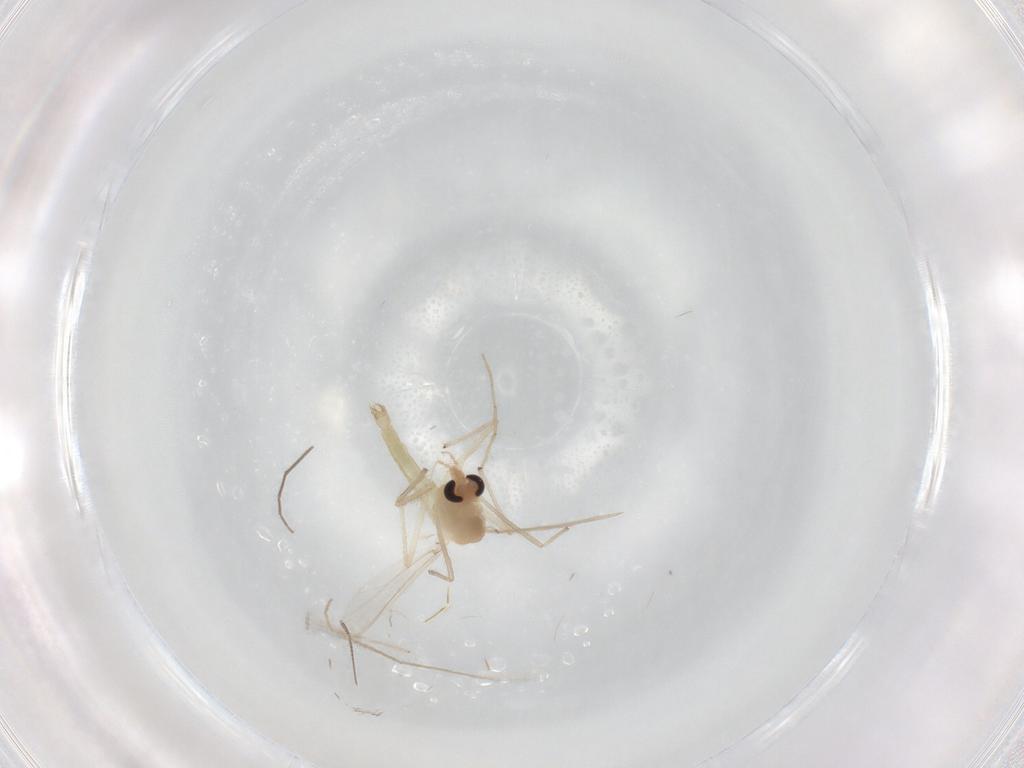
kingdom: Animalia
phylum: Arthropoda
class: Insecta
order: Diptera
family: Chironomidae
